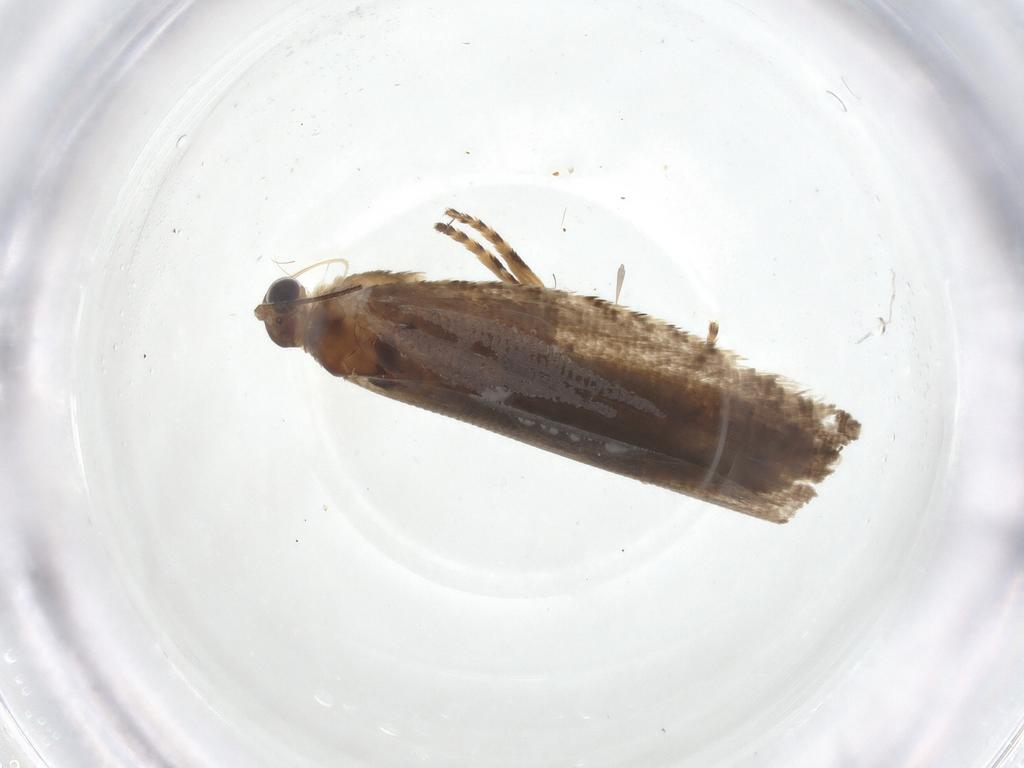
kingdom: Animalia
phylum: Arthropoda
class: Insecta
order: Lepidoptera
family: Tortricidae
